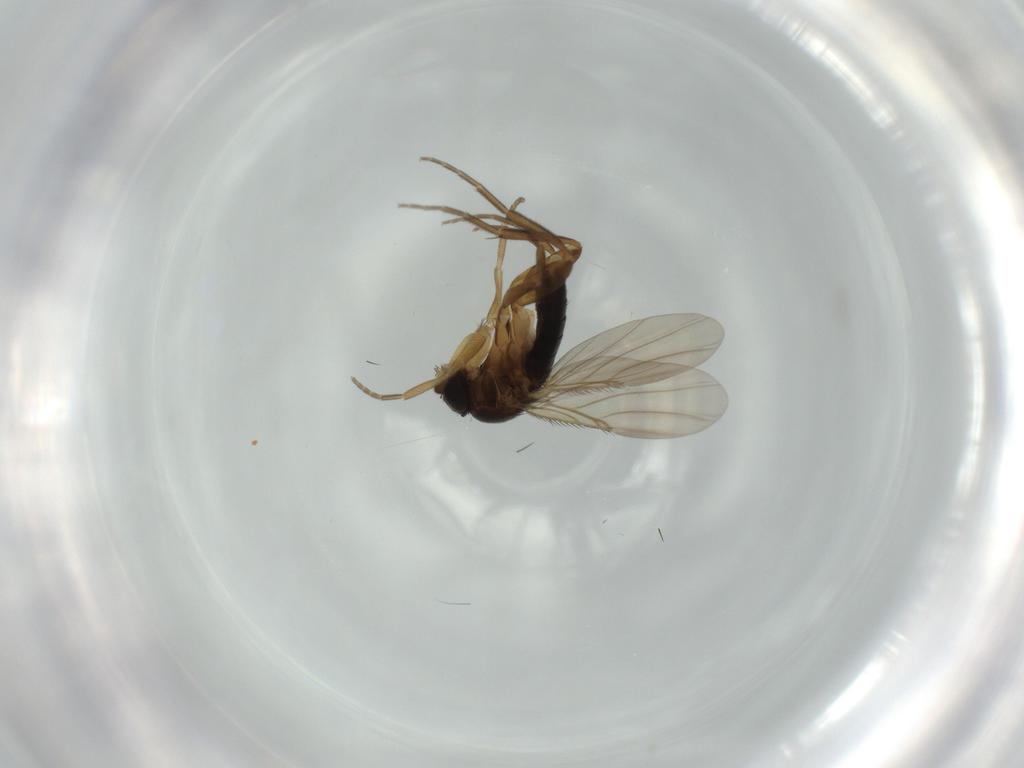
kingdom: Animalia
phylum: Arthropoda
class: Insecta
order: Diptera
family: Phoridae
